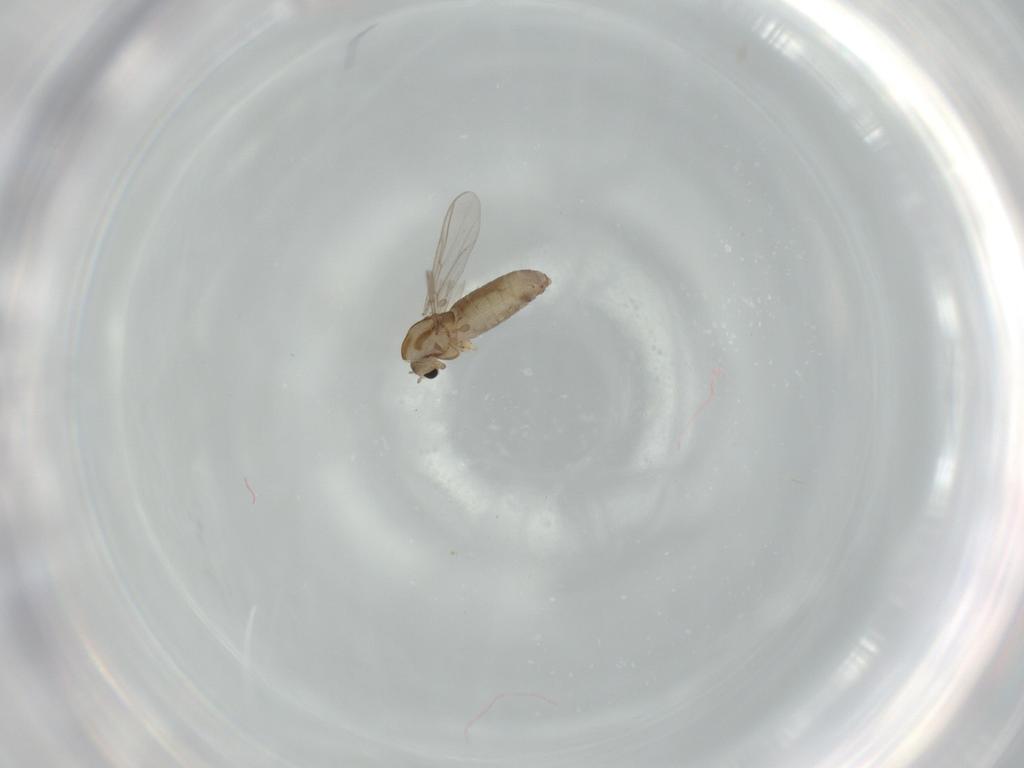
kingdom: Animalia
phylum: Arthropoda
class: Insecta
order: Diptera
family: Chironomidae
